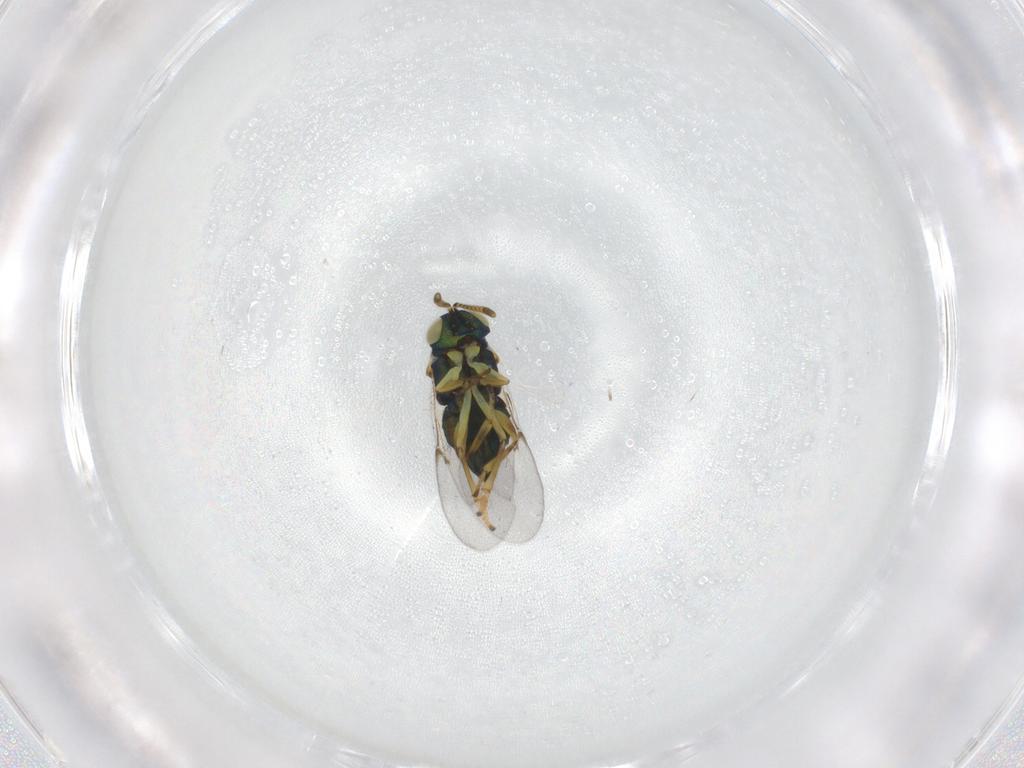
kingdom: Animalia
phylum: Arthropoda
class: Insecta
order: Hymenoptera
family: Encyrtidae
